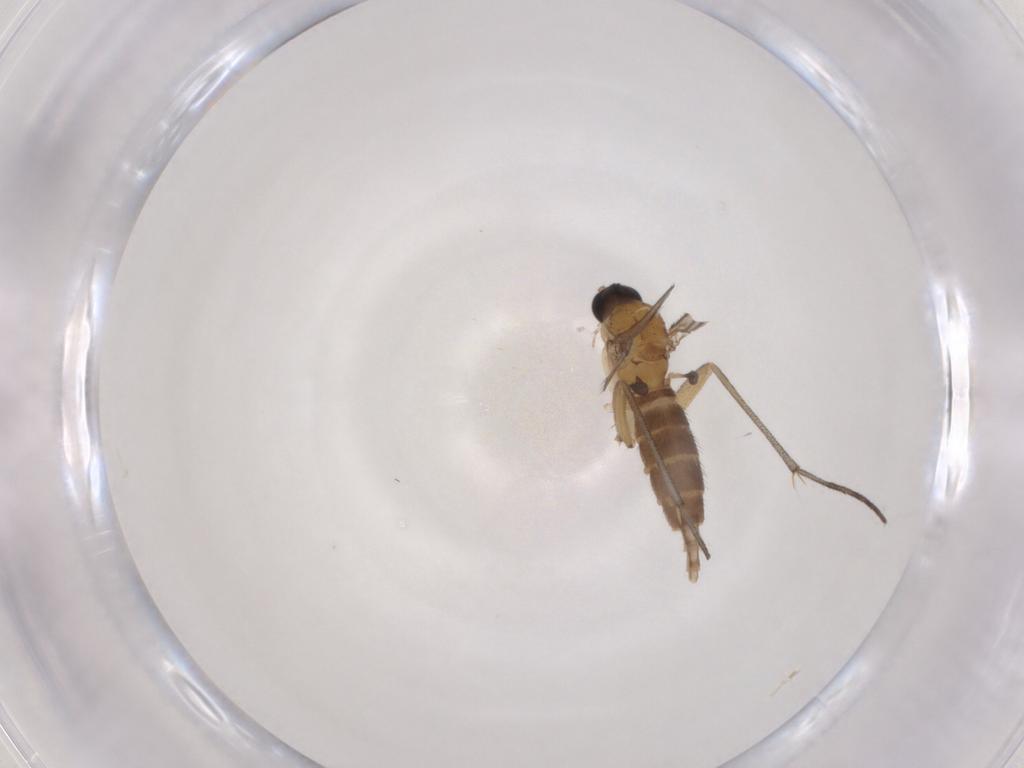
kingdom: Animalia
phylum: Arthropoda
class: Insecta
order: Diptera
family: Sciaridae
